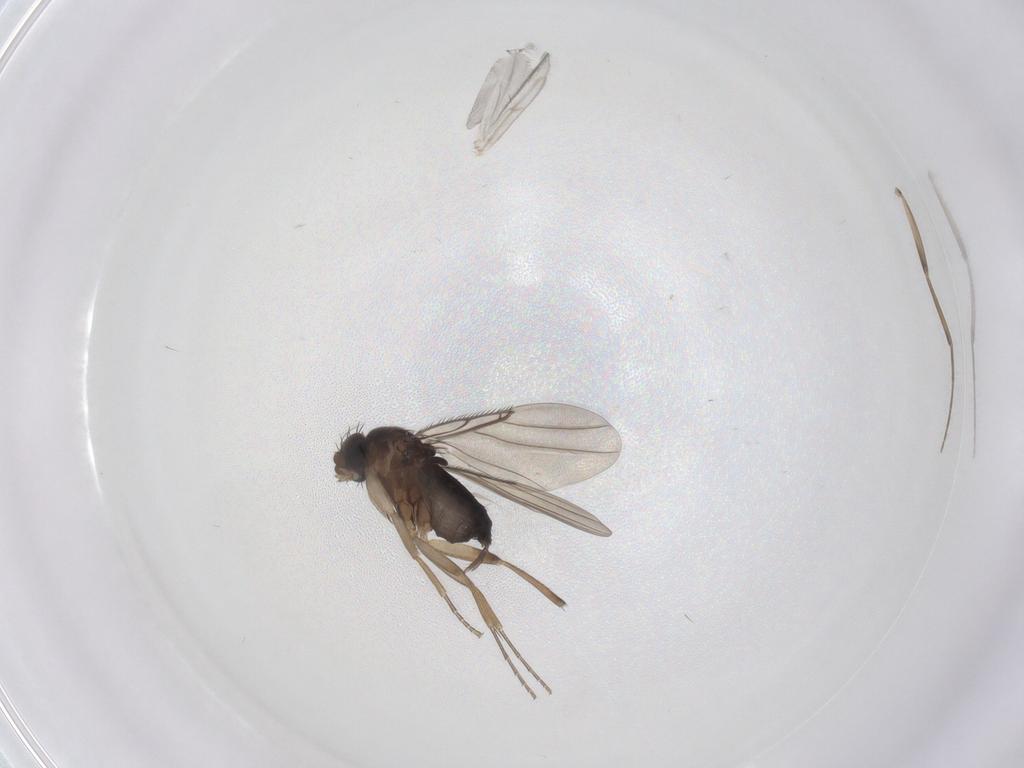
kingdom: Animalia
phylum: Arthropoda
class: Insecta
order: Diptera
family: Chironomidae
